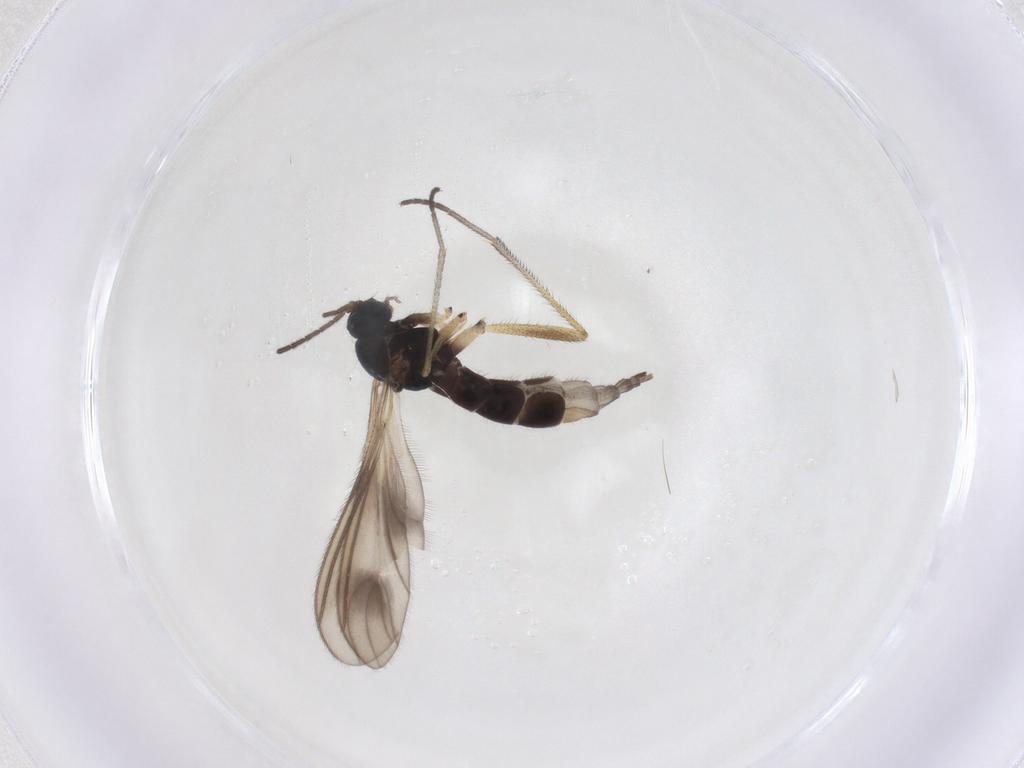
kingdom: Animalia
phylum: Arthropoda
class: Insecta
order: Diptera
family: Sciaridae
